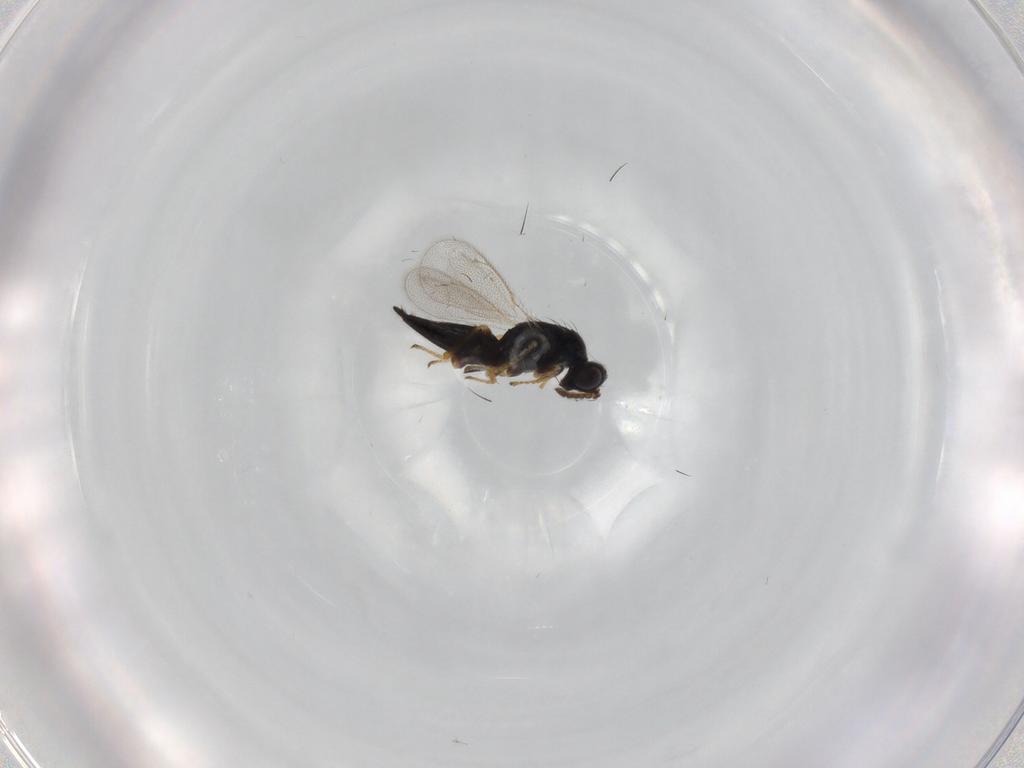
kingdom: Animalia
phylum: Arthropoda
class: Insecta
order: Hymenoptera
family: Eulophidae
